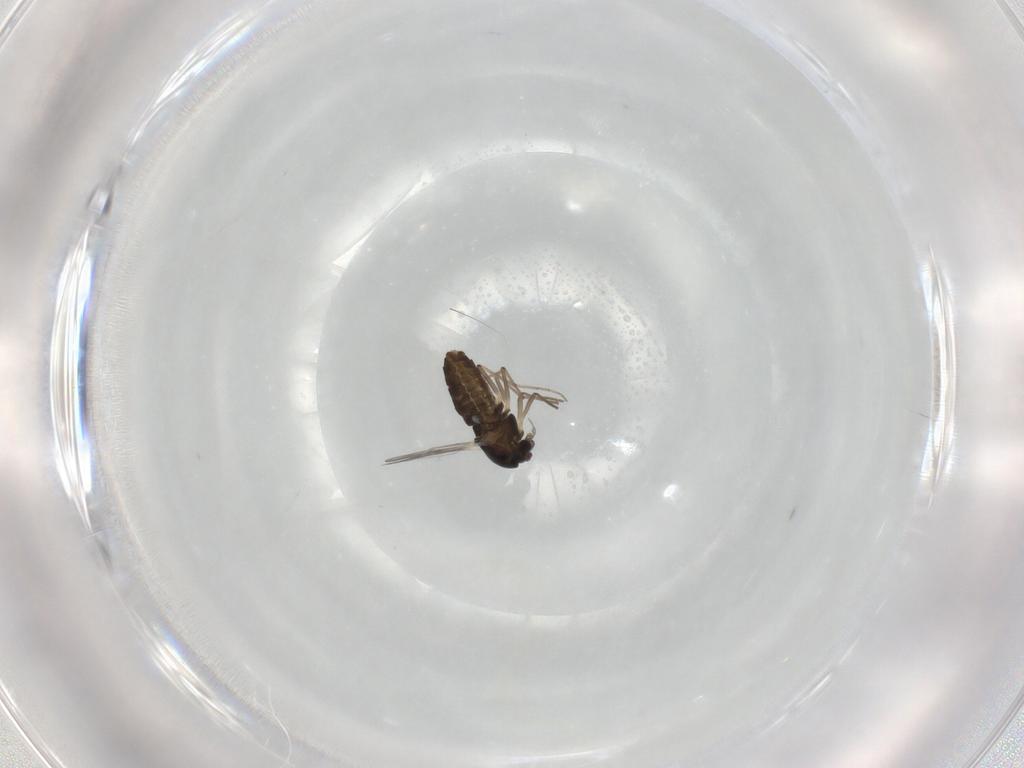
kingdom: Animalia
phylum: Arthropoda
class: Insecta
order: Diptera
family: Chironomidae
